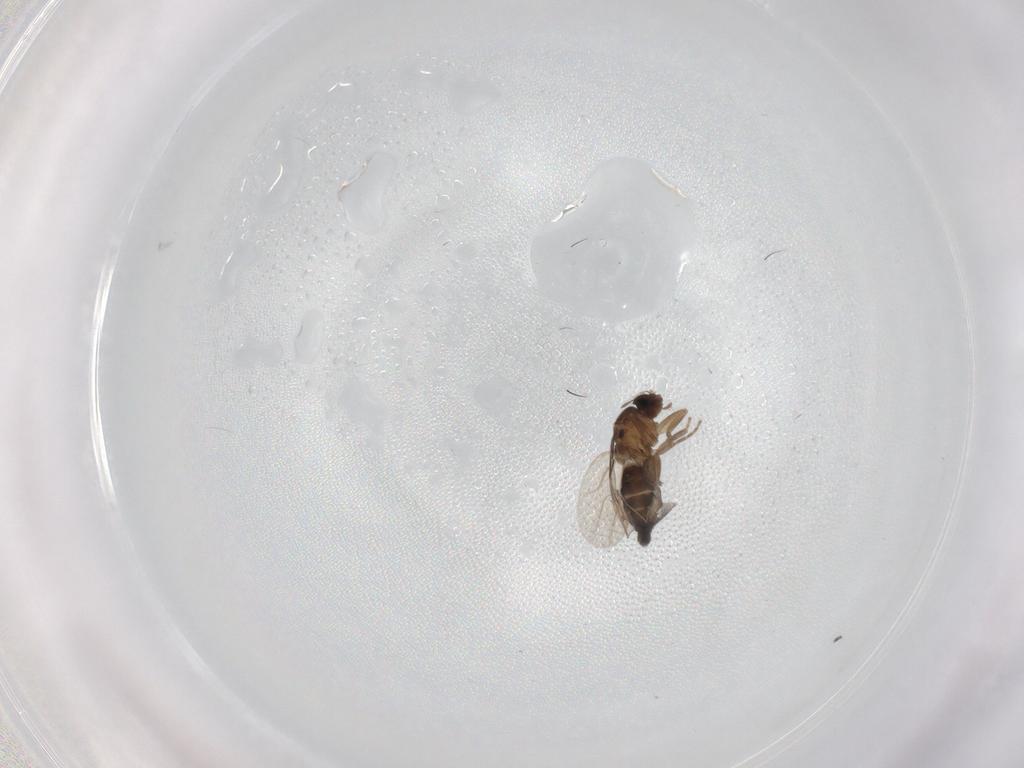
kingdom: Animalia
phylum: Arthropoda
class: Insecta
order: Diptera
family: Phoridae
